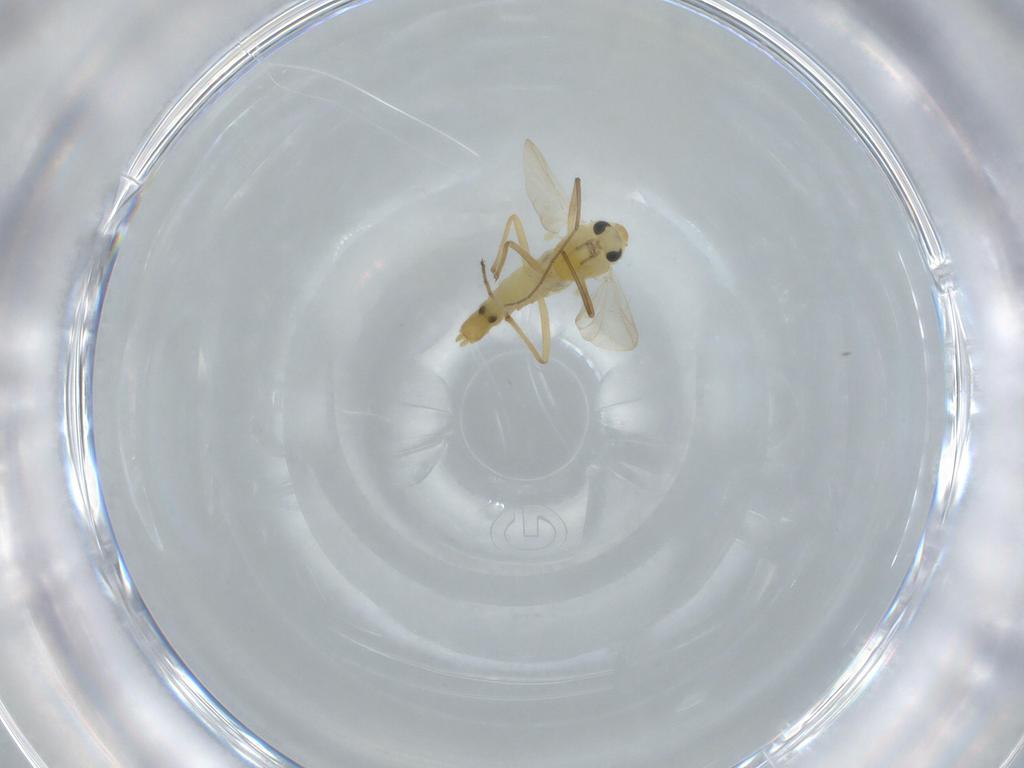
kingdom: Animalia
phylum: Arthropoda
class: Insecta
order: Diptera
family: Chironomidae
